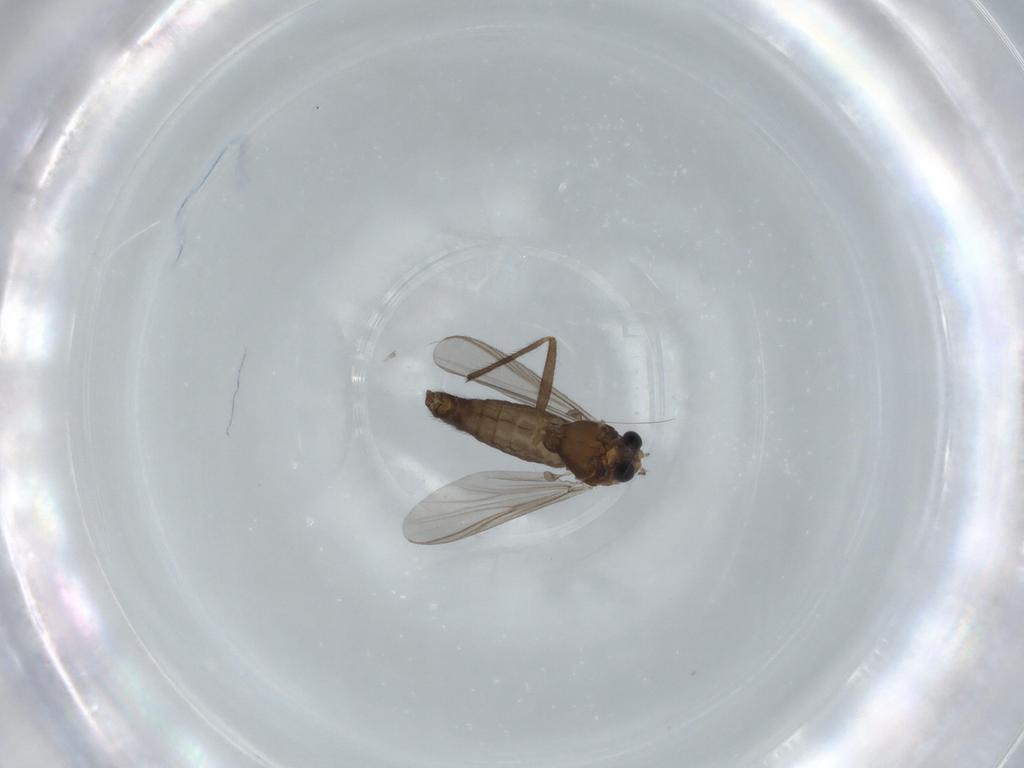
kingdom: Animalia
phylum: Arthropoda
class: Insecta
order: Diptera
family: Chironomidae
